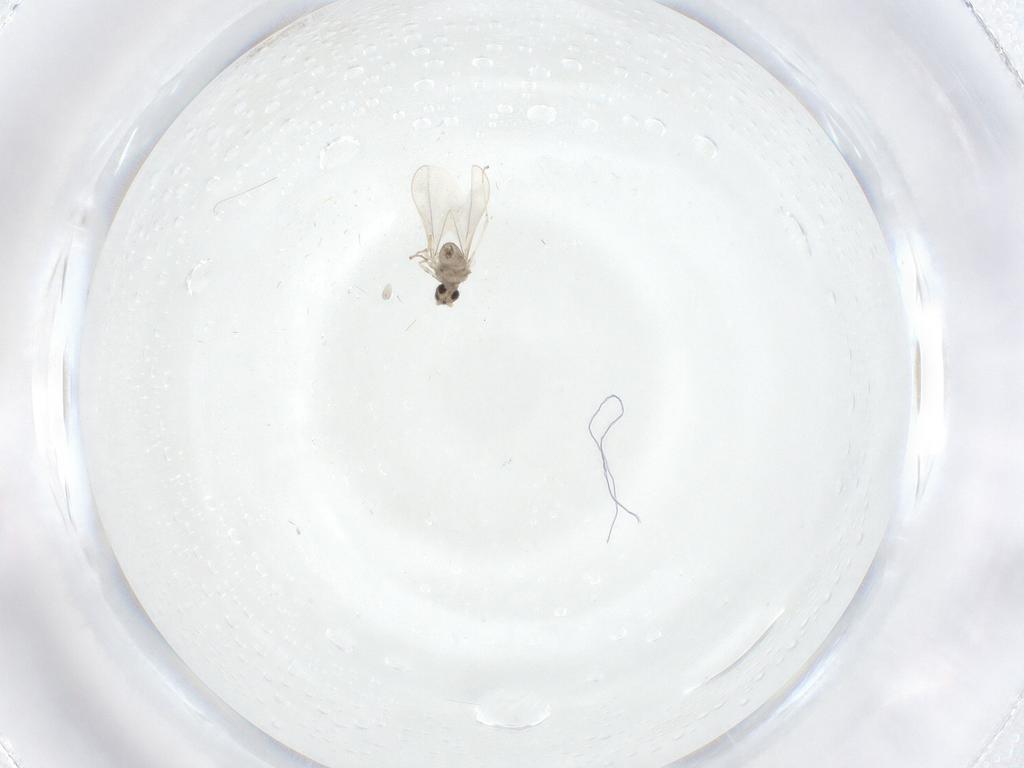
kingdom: Animalia
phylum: Arthropoda
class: Insecta
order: Diptera
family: Cecidomyiidae
